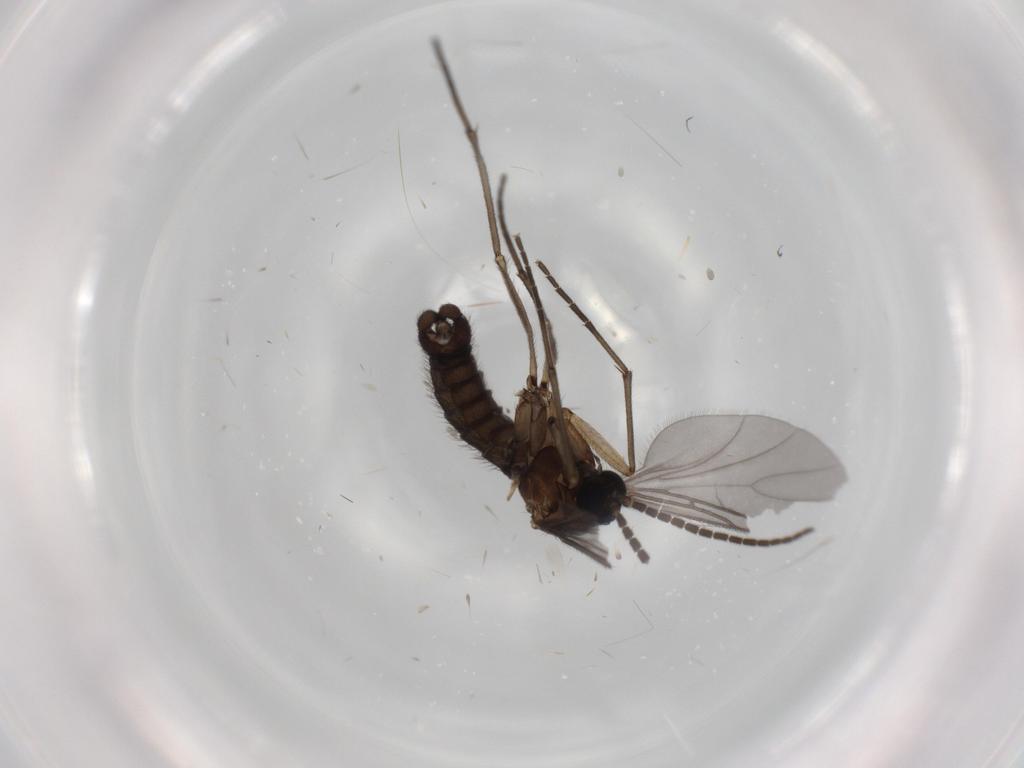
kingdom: Animalia
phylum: Arthropoda
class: Insecta
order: Diptera
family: Sciaridae
